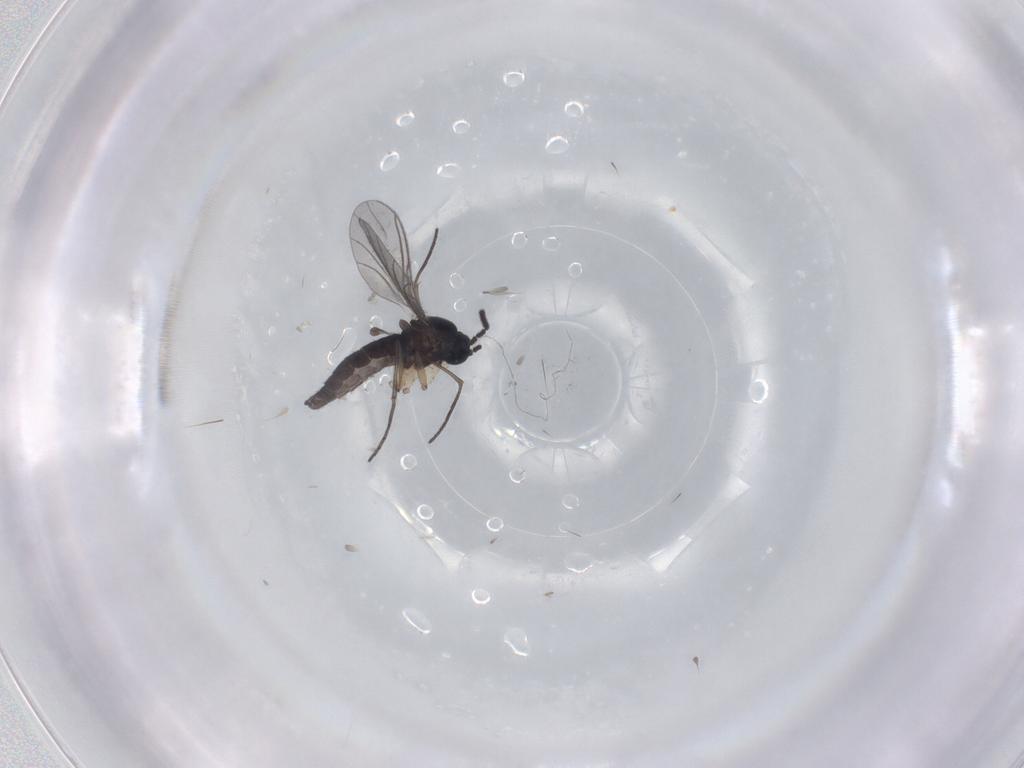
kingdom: Animalia
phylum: Arthropoda
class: Insecta
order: Diptera
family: Sciaridae
